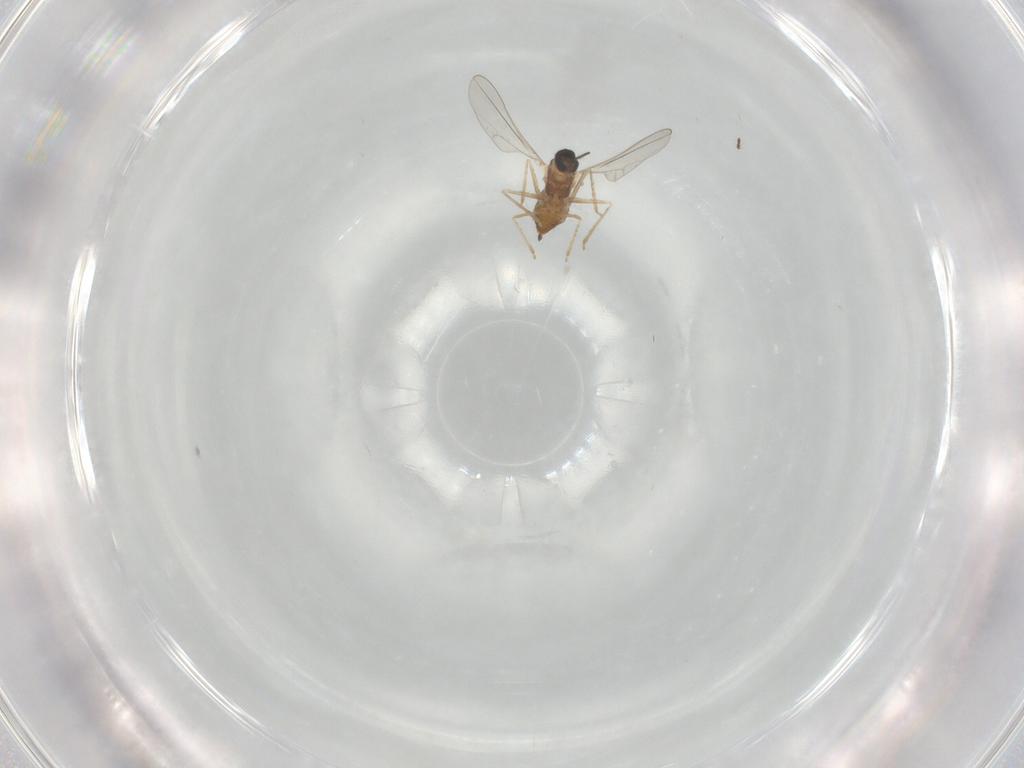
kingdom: Animalia
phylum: Arthropoda
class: Insecta
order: Diptera
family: Cecidomyiidae
